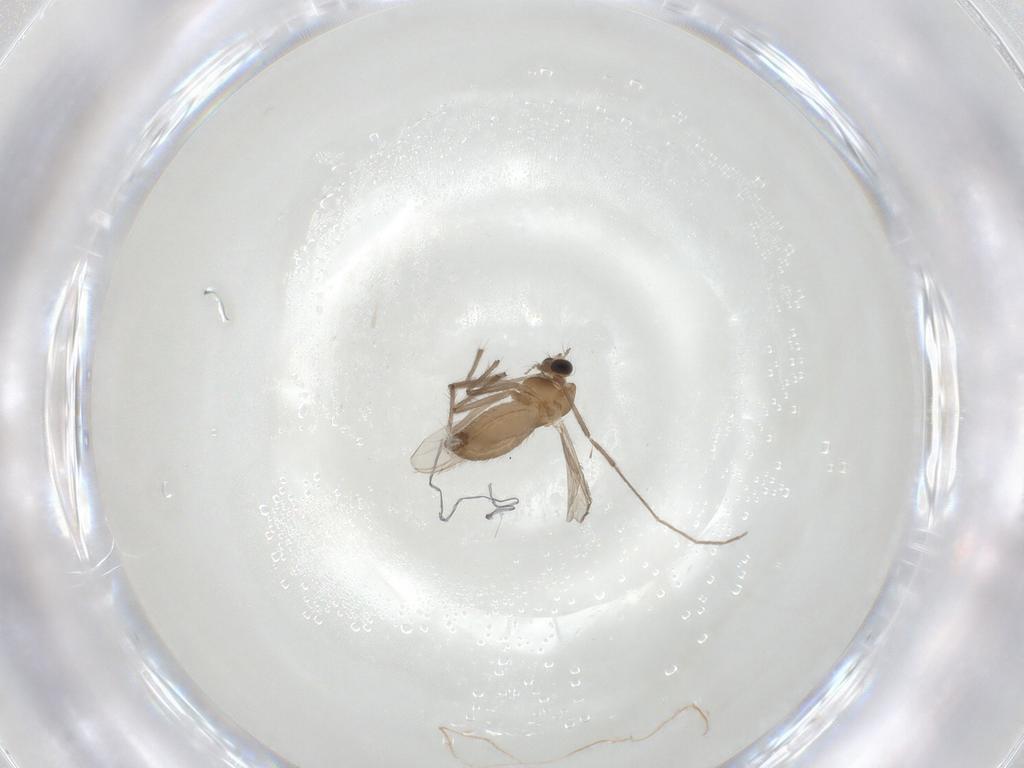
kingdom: Animalia
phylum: Arthropoda
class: Insecta
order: Diptera
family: Chironomidae
